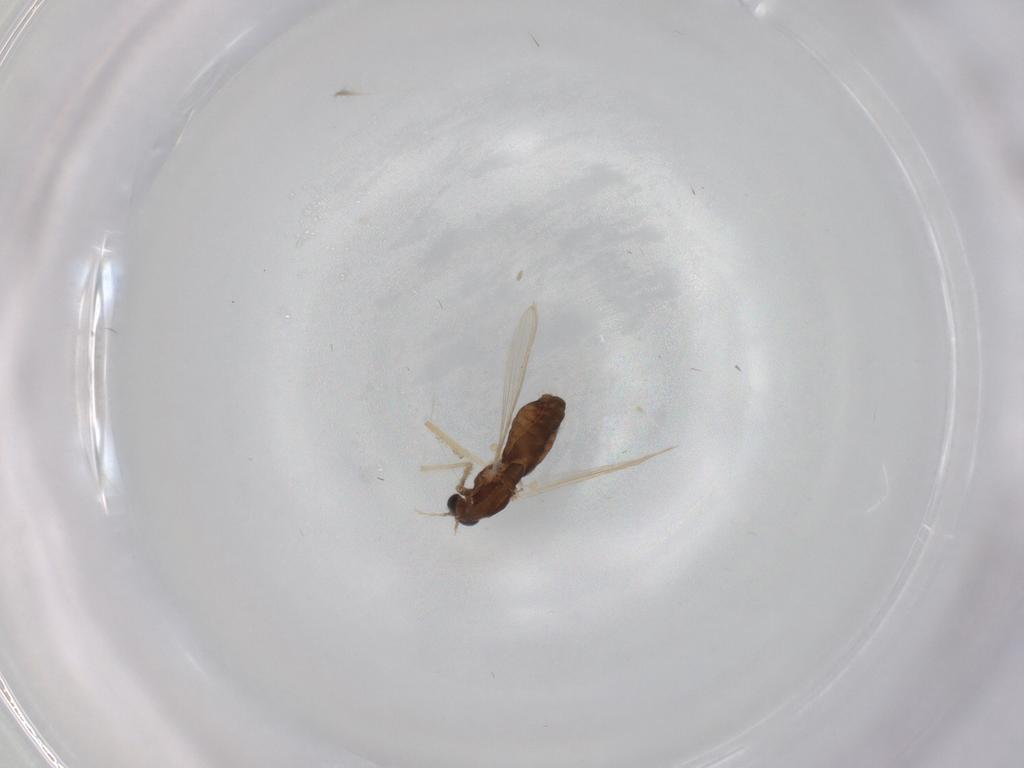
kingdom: Animalia
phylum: Arthropoda
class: Insecta
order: Diptera
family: Chironomidae
